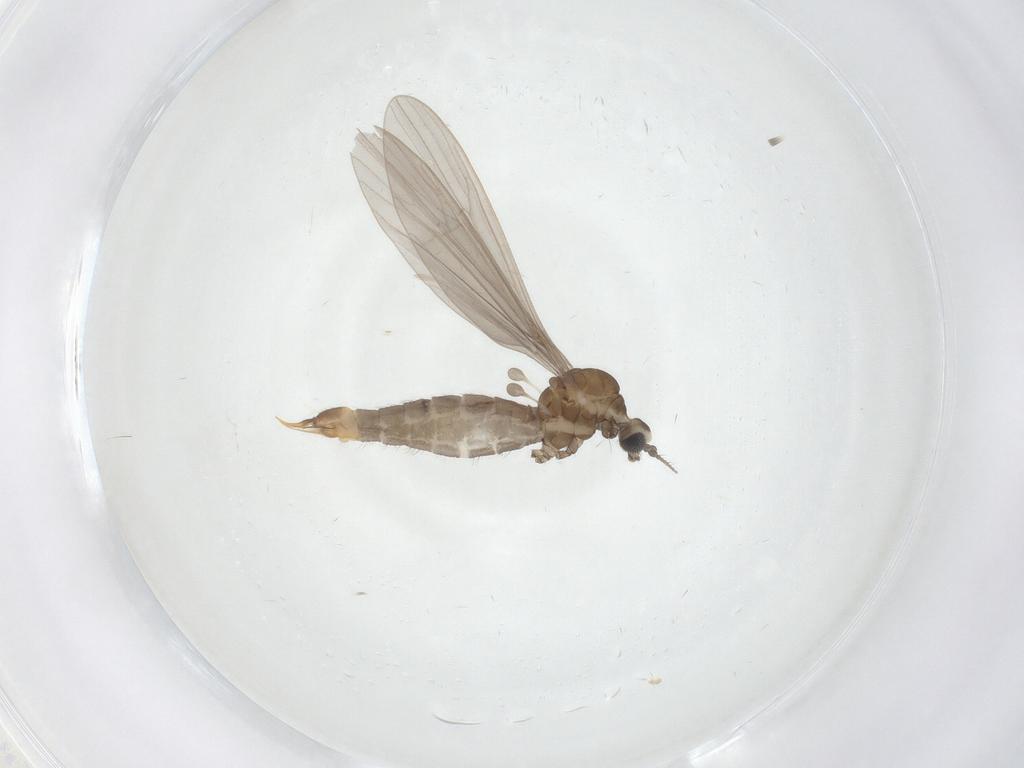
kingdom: Animalia
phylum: Arthropoda
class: Insecta
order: Diptera
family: Limoniidae
